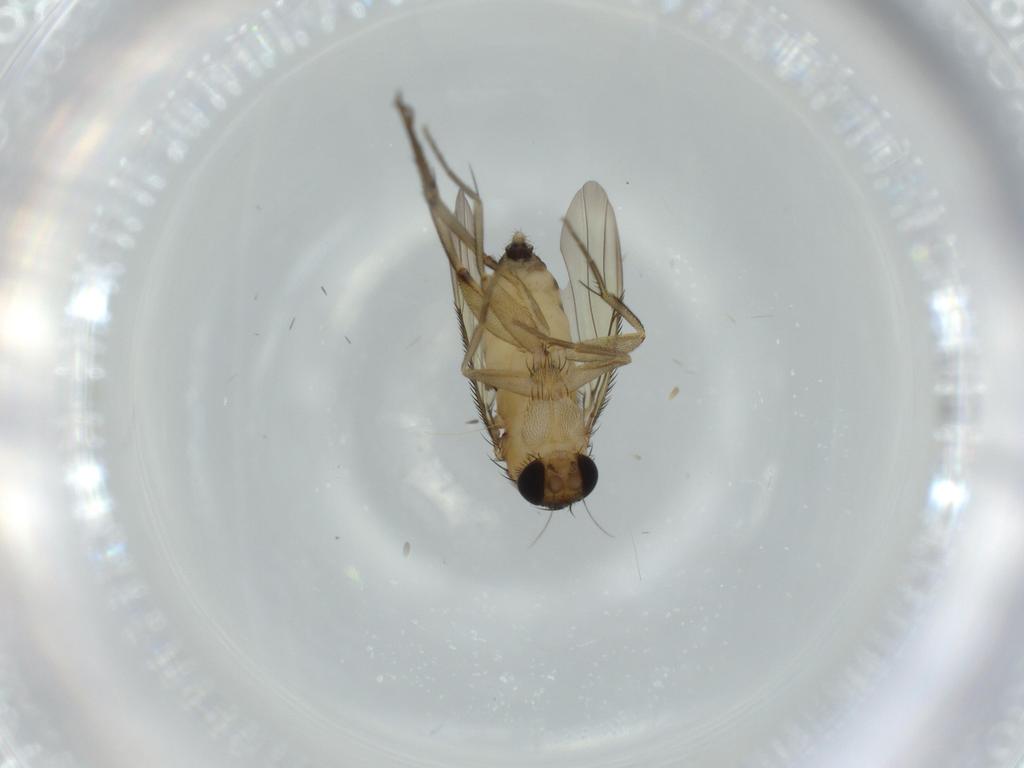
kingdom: Animalia
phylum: Arthropoda
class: Insecta
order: Diptera
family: Phoridae
